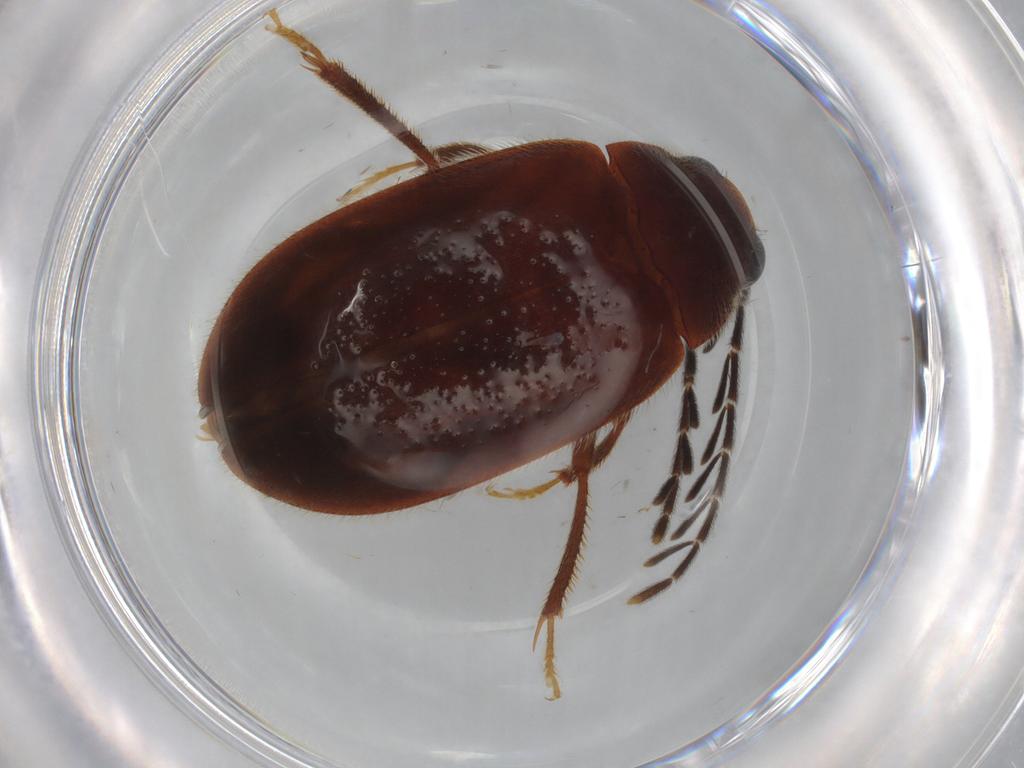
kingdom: Animalia
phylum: Arthropoda
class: Insecta
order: Coleoptera
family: Ptilodactylidae
